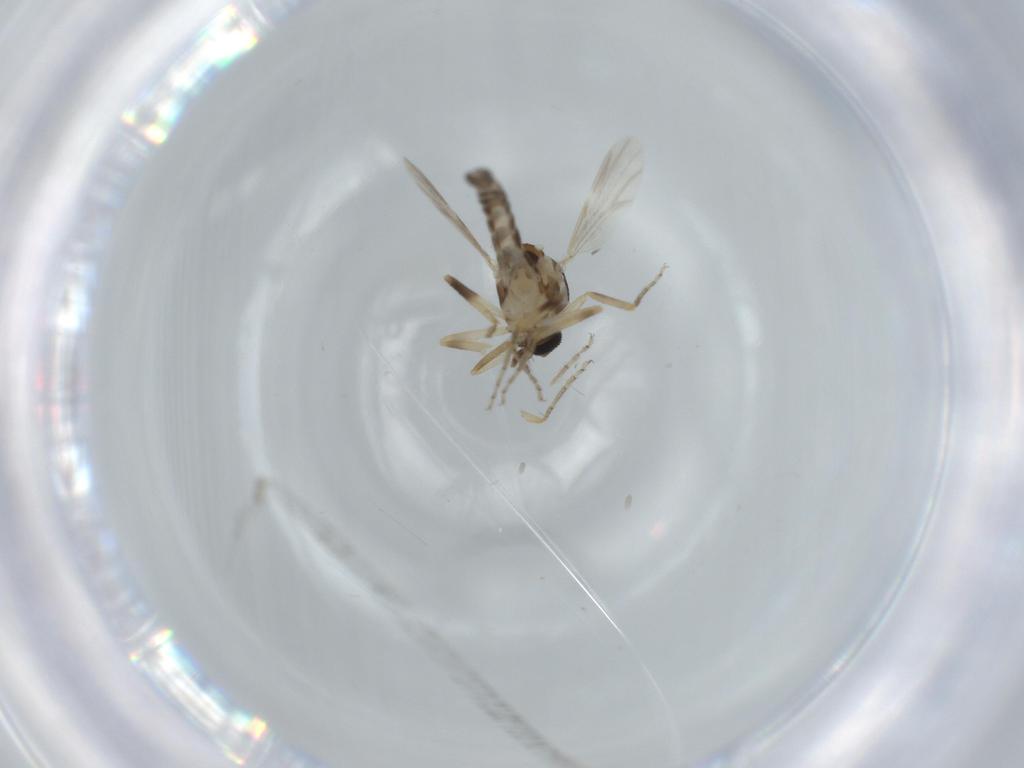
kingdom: Animalia
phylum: Arthropoda
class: Insecta
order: Diptera
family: Ceratopogonidae
